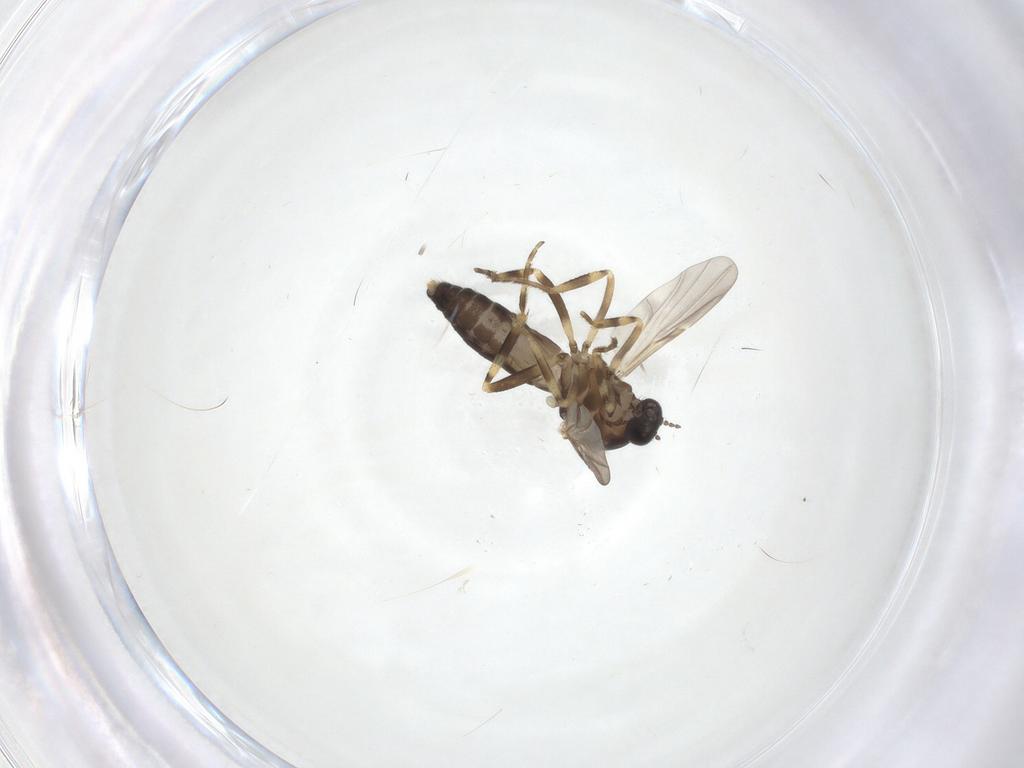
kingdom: Animalia
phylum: Arthropoda
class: Insecta
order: Diptera
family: Ceratopogonidae
